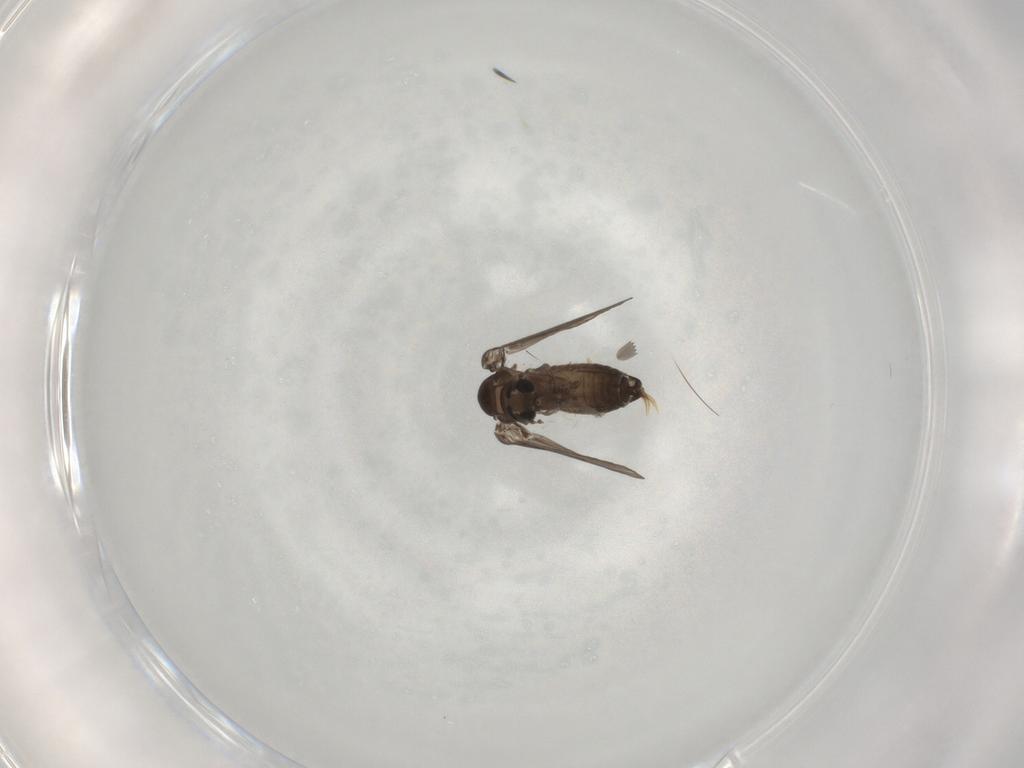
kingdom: Animalia
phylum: Arthropoda
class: Insecta
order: Diptera
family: Psychodidae
